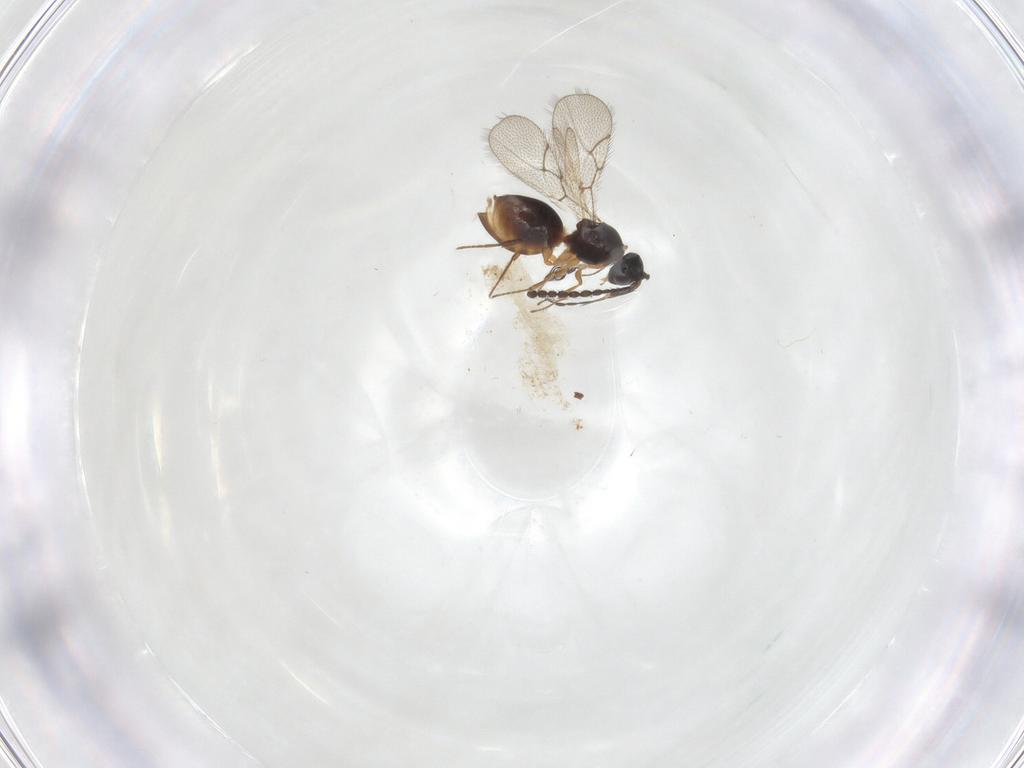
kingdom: Animalia
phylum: Arthropoda
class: Insecta
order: Hymenoptera
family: Figitidae
